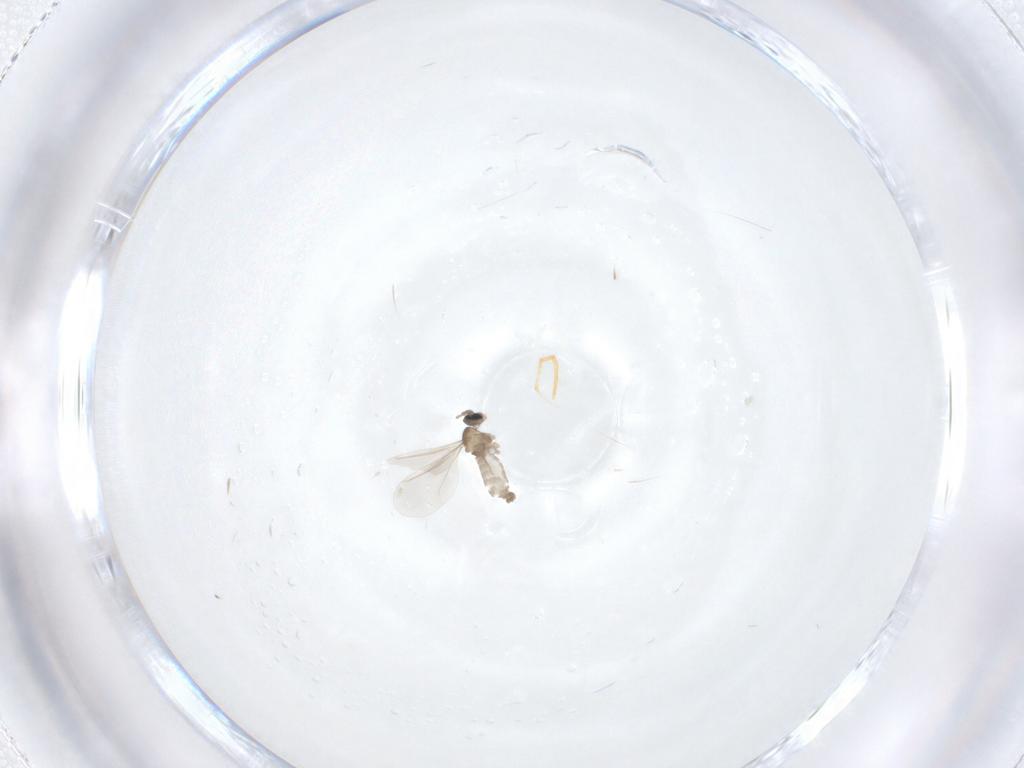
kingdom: Animalia
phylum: Arthropoda
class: Insecta
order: Diptera
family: Cecidomyiidae
